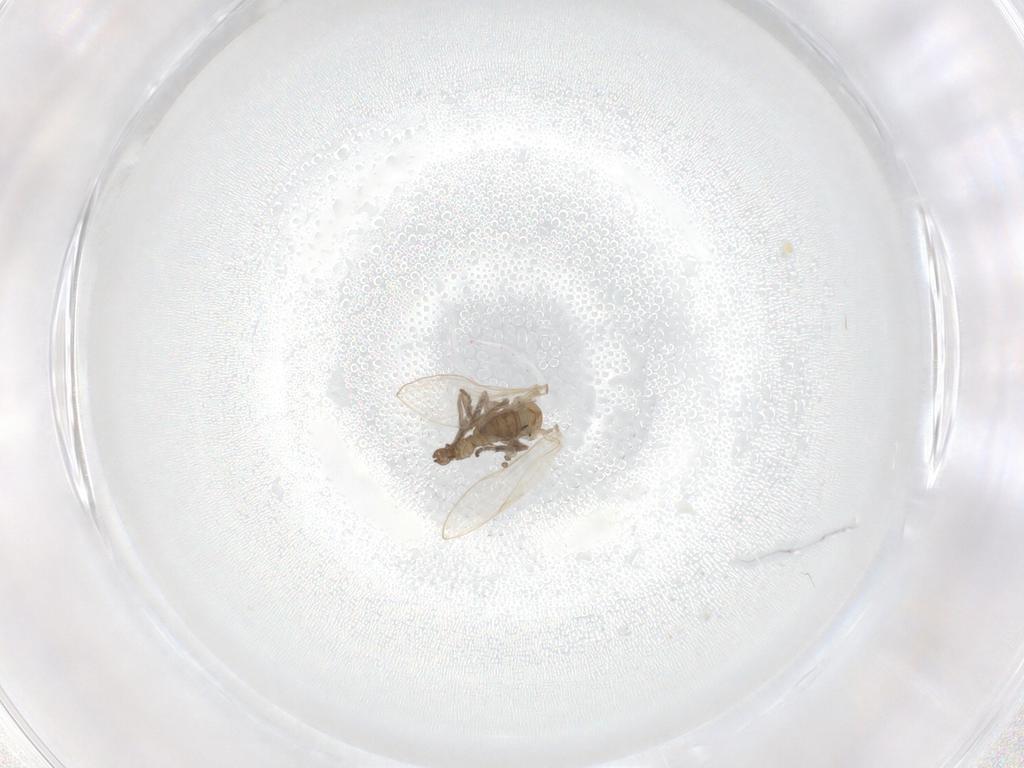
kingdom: Animalia
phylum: Arthropoda
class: Insecta
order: Diptera
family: Psychodidae
